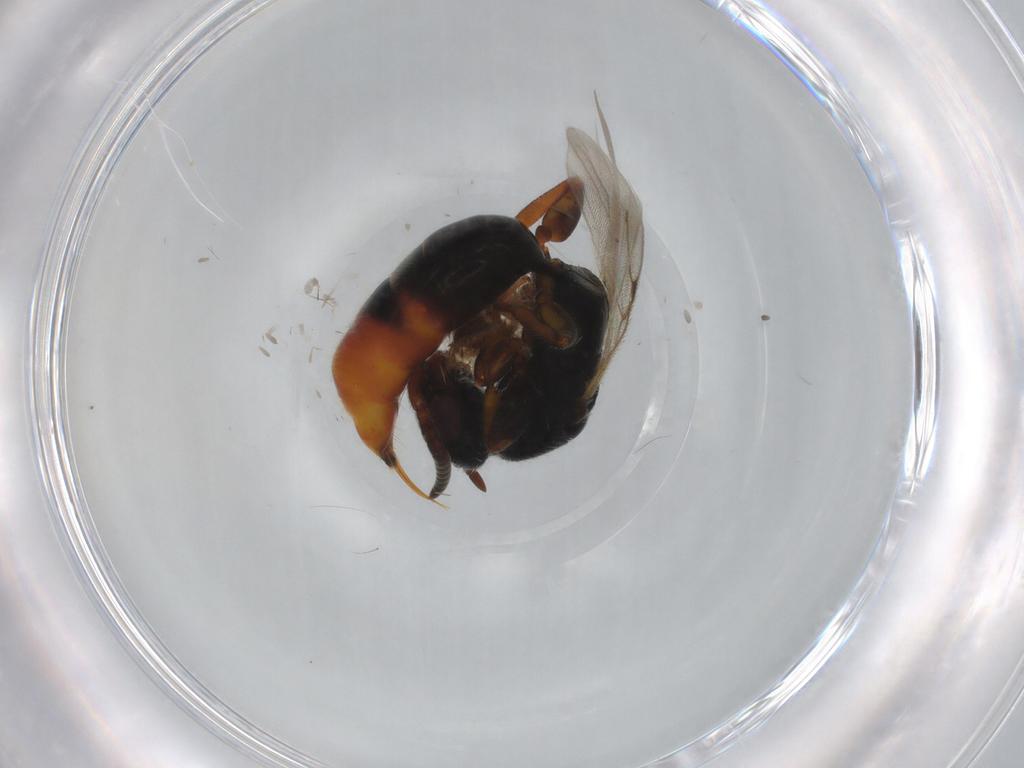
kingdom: Animalia
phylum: Arthropoda
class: Insecta
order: Hymenoptera
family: Bethylidae
